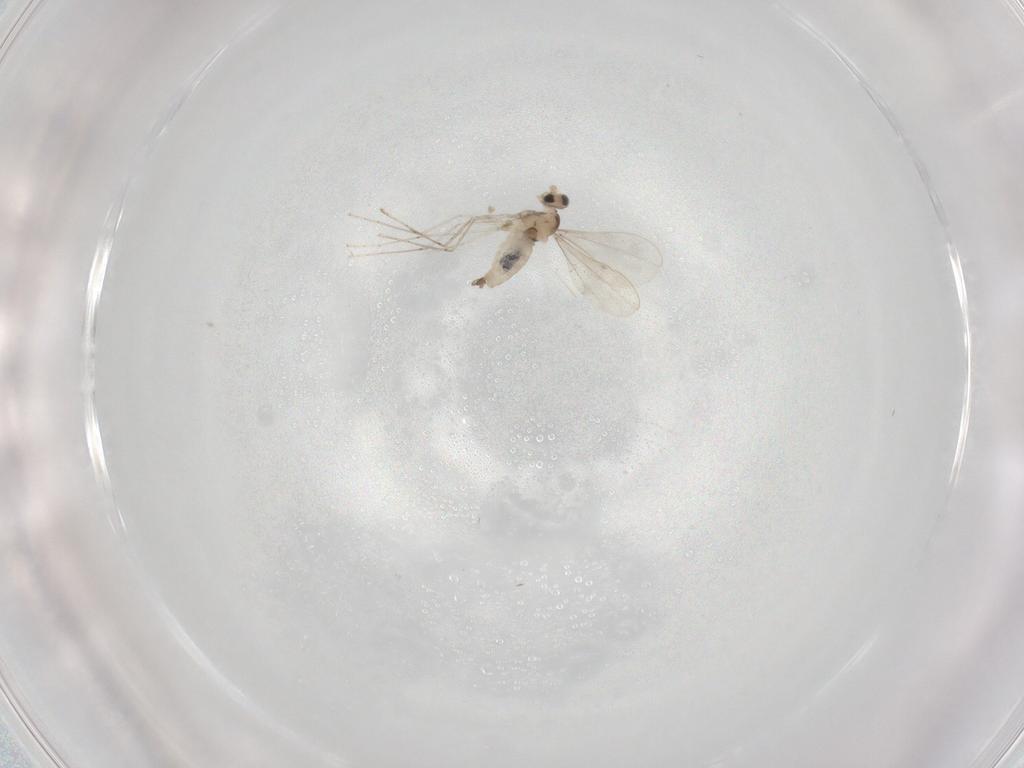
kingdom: Animalia
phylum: Arthropoda
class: Insecta
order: Diptera
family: Cecidomyiidae
